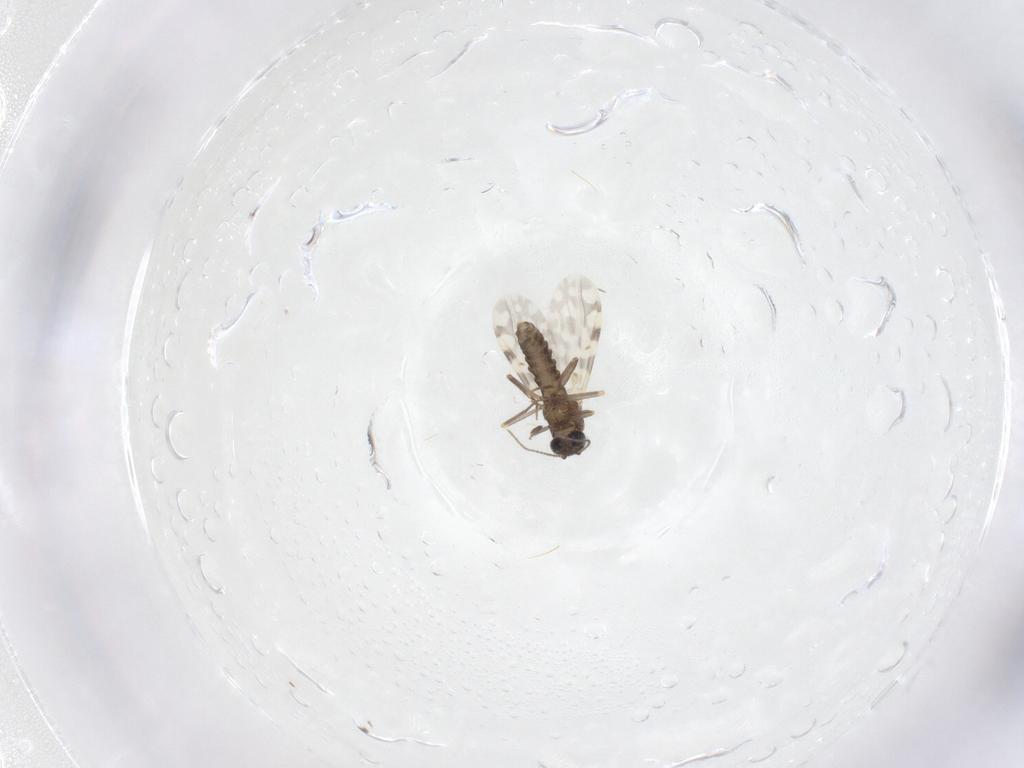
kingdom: Animalia
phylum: Arthropoda
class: Insecta
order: Diptera
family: Ceratopogonidae
